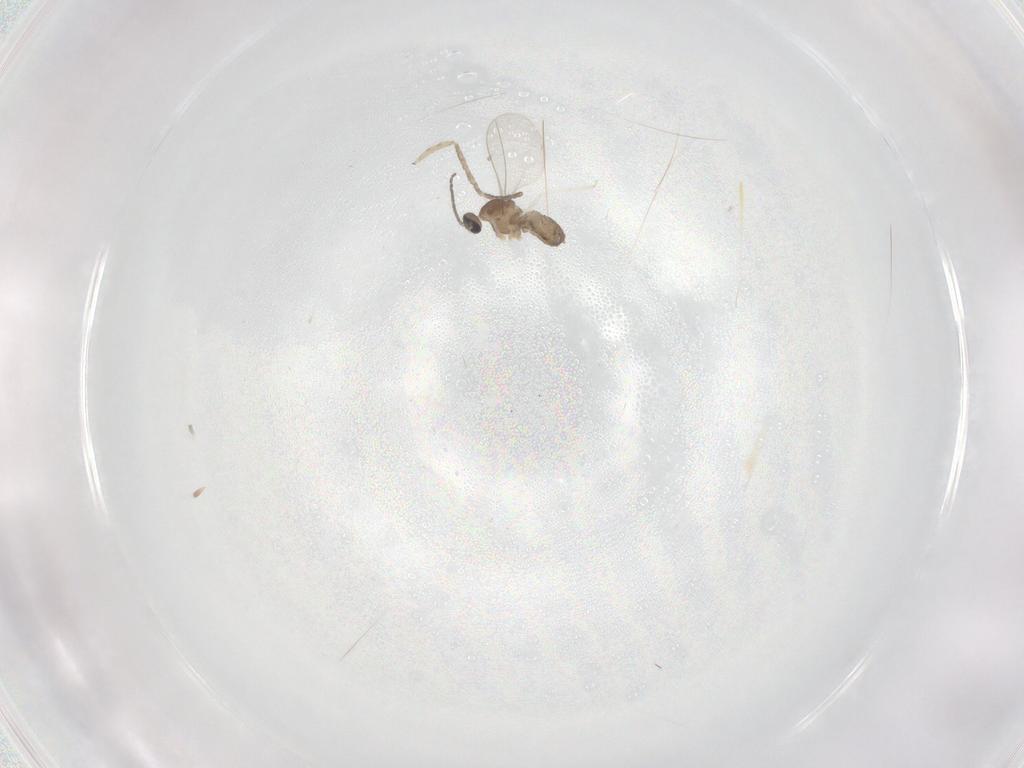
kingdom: Animalia
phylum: Arthropoda
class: Insecta
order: Diptera
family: Cecidomyiidae
